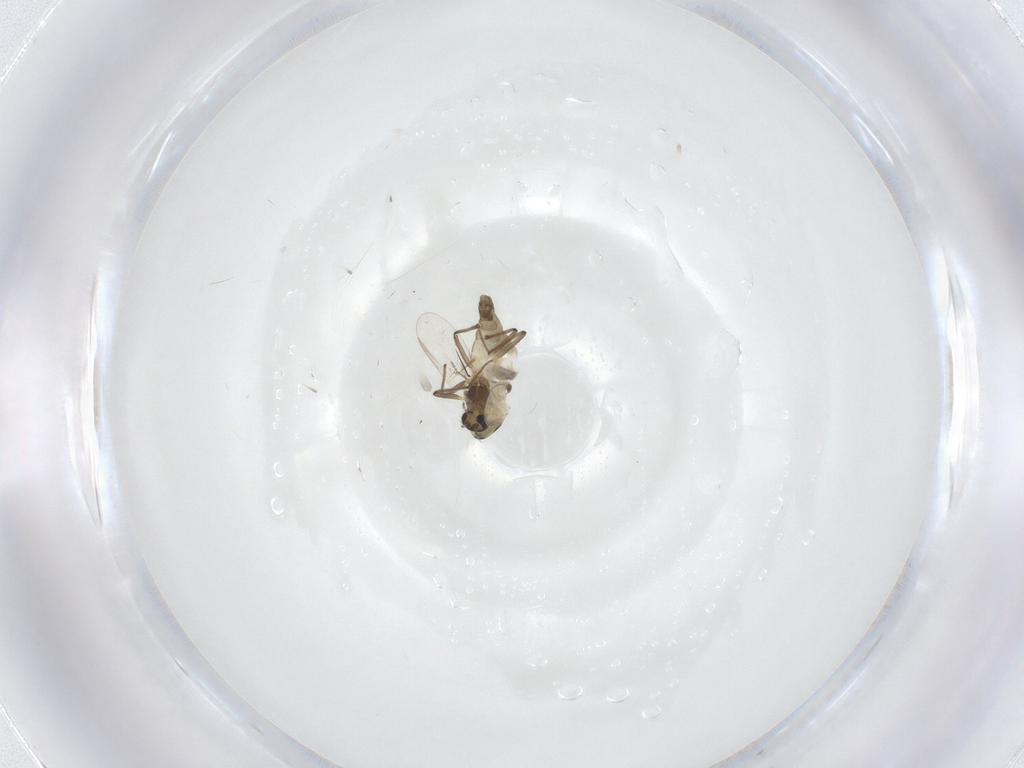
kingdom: Animalia
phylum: Arthropoda
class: Insecta
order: Diptera
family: Chironomidae
